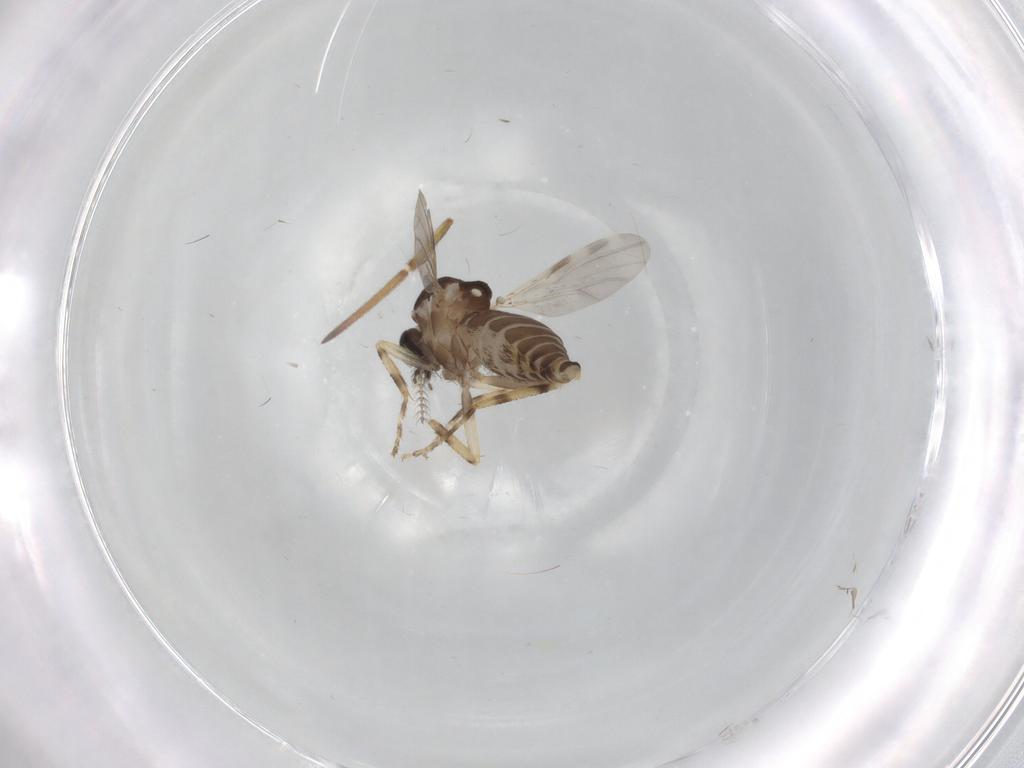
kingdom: Animalia
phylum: Arthropoda
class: Insecta
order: Diptera
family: Ceratopogonidae
